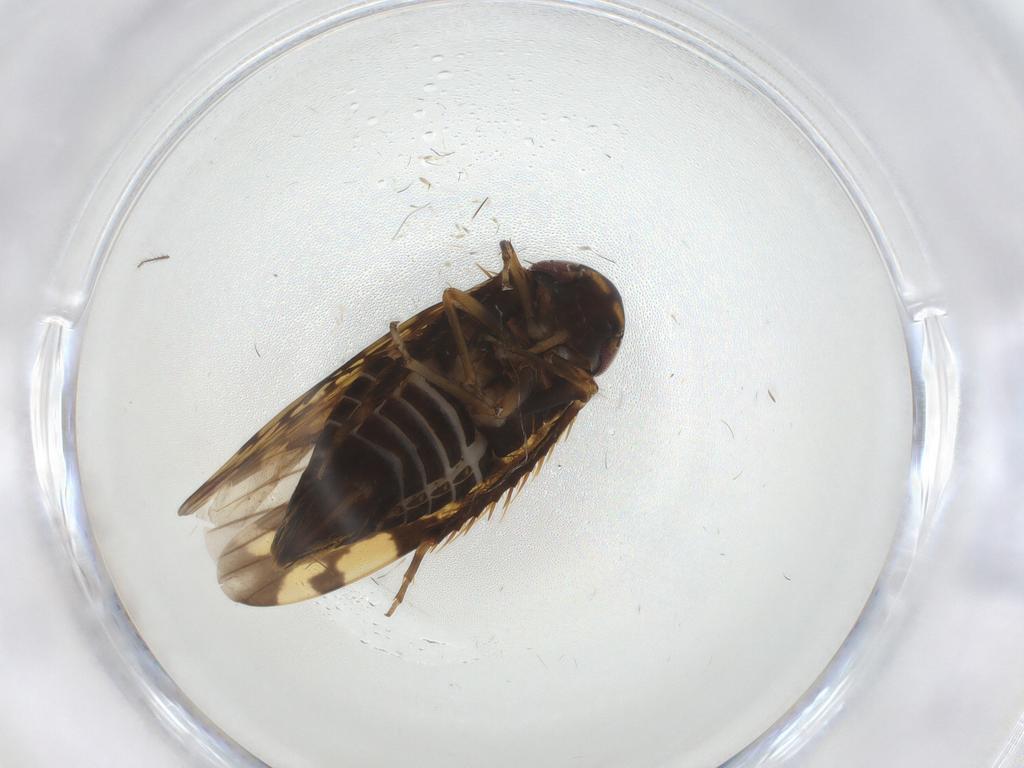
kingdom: Animalia
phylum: Arthropoda
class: Insecta
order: Hemiptera
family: Cicadellidae
